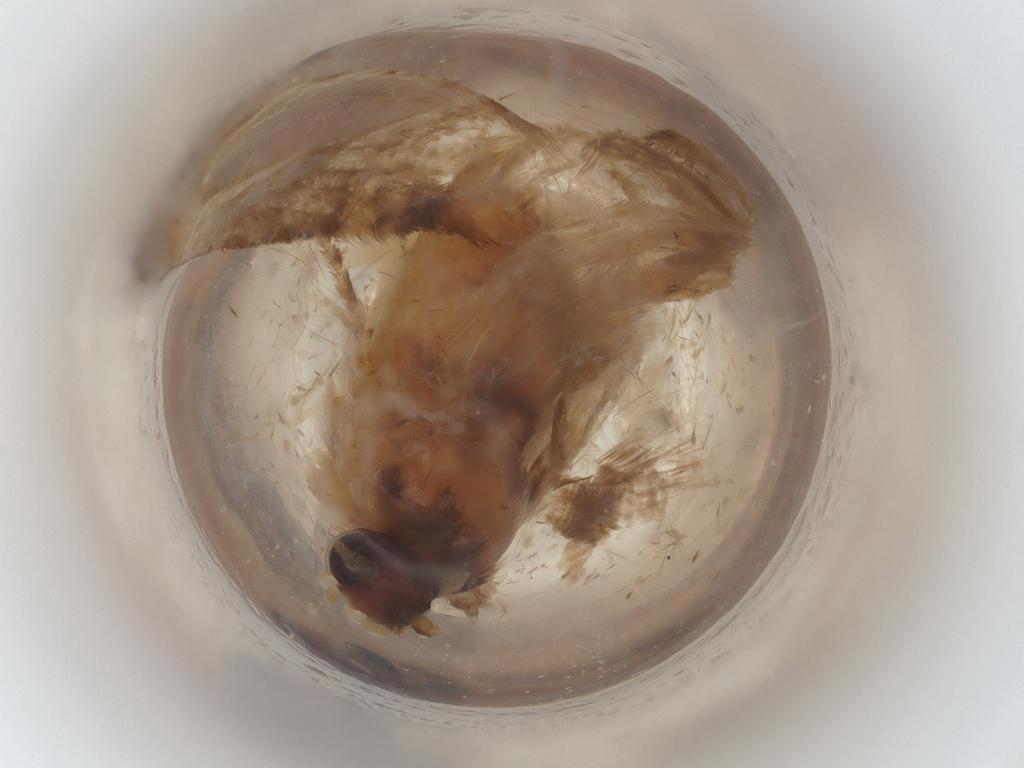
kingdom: Animalia
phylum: Arthropoda
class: Insecta
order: Lepidoptera
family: Tortricidae
